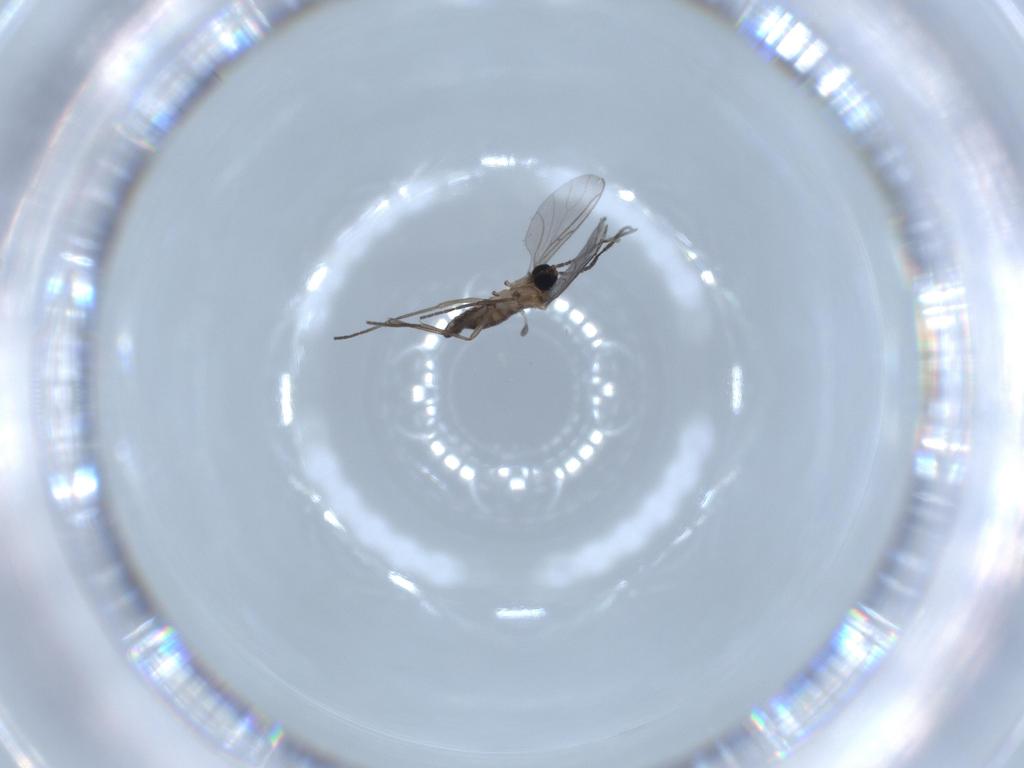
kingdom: Animalia
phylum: Arthropoda
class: Insecta
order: Diptera
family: Sciaridae
